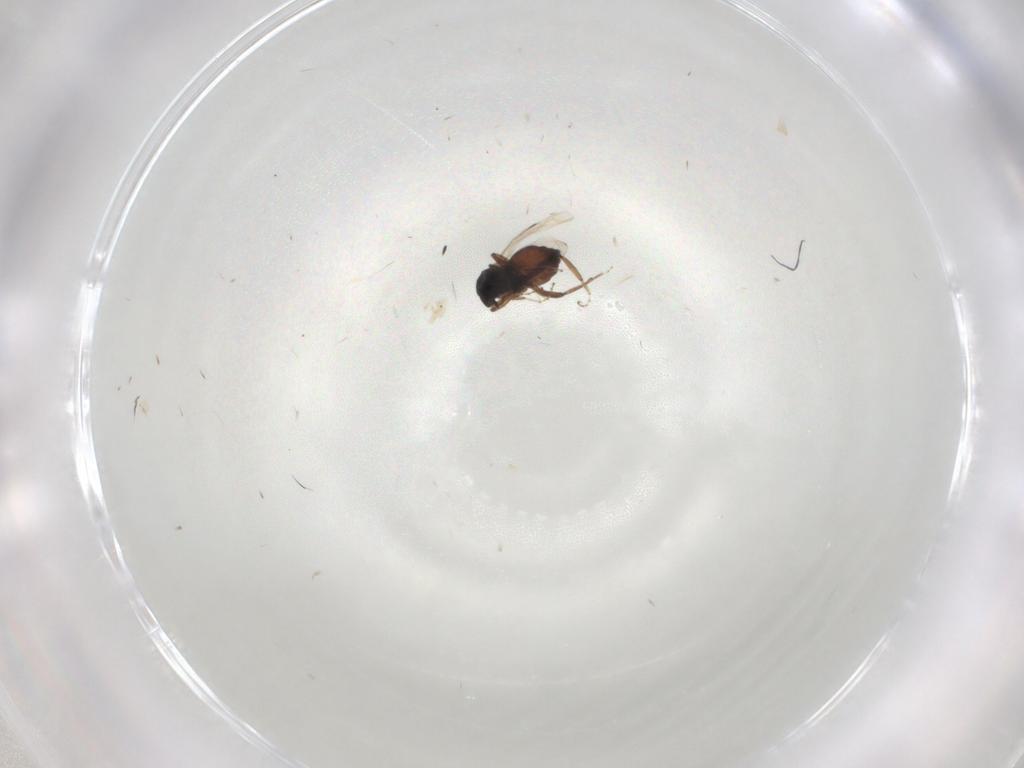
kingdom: Animalia
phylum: Arthropoda
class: Insecta
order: Diptera
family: Ceratopogonidae
